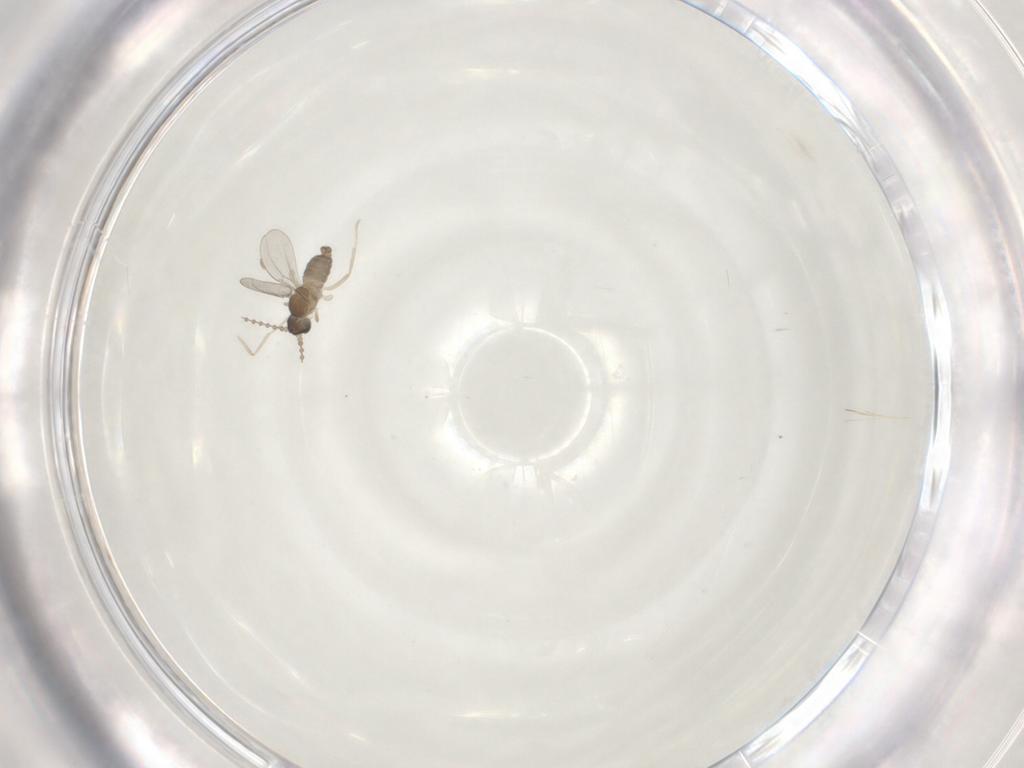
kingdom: Animalia
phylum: Arthropoda
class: Insecta
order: Diptera
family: Cecidomyiidae
